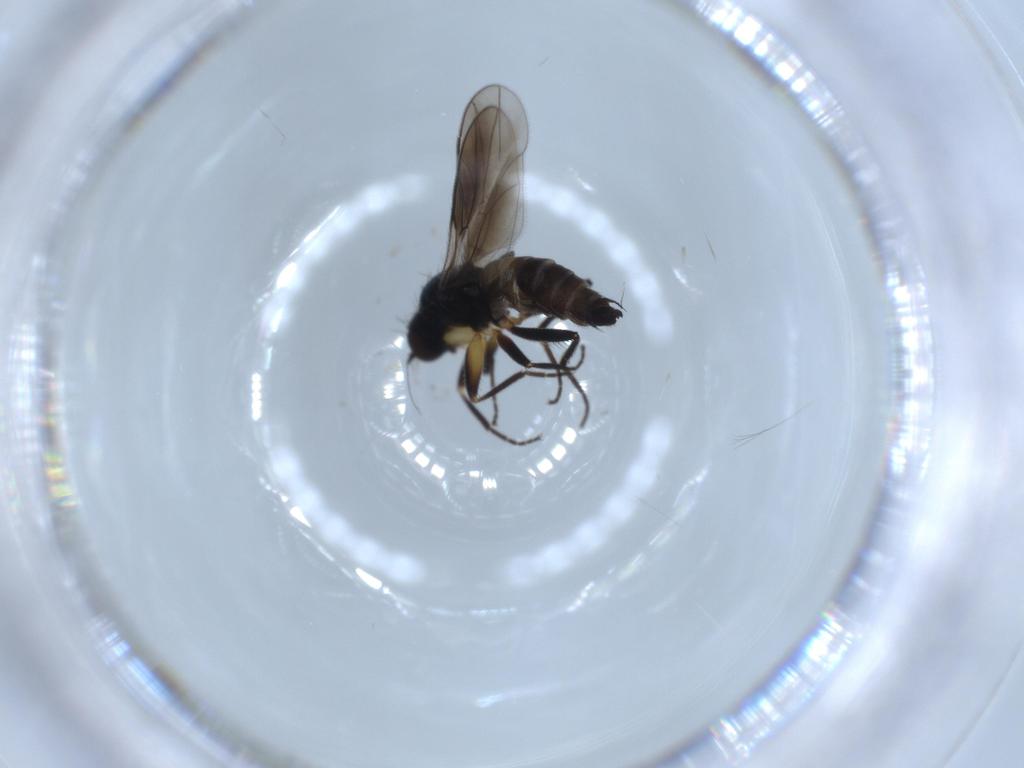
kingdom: Animalia
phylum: Arthropoda
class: Insecta
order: Diptera
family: Hybotidae
